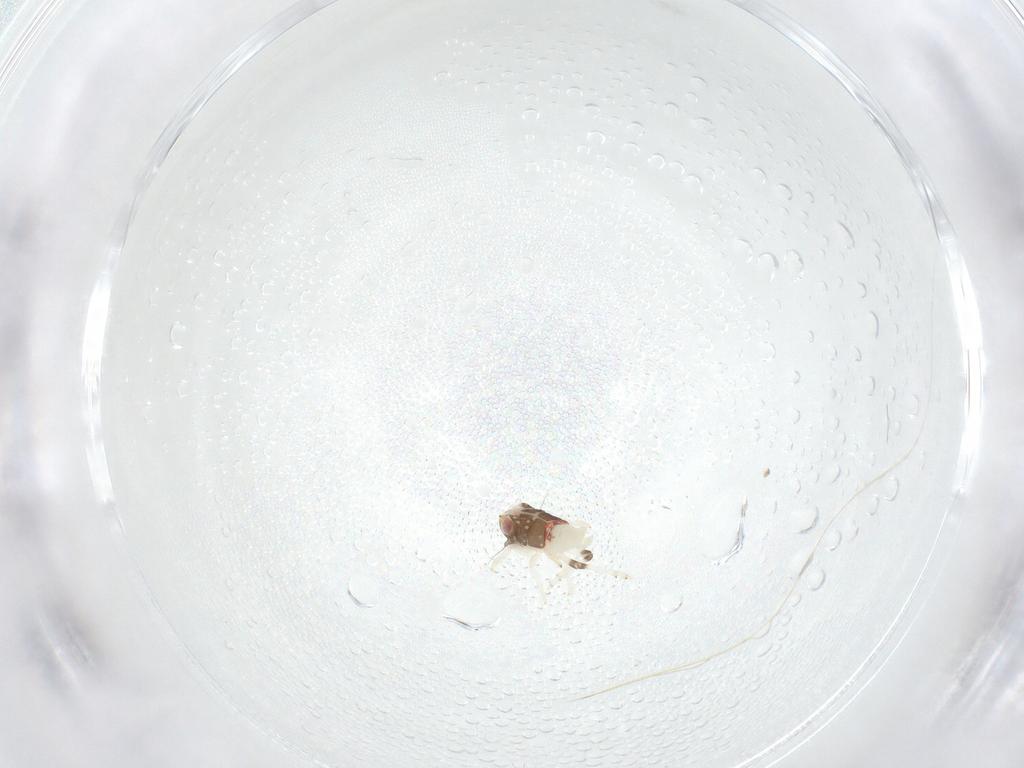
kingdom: Animalia
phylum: Arthropoda
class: Insecta
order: Hemiptera
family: Nogodinidae
